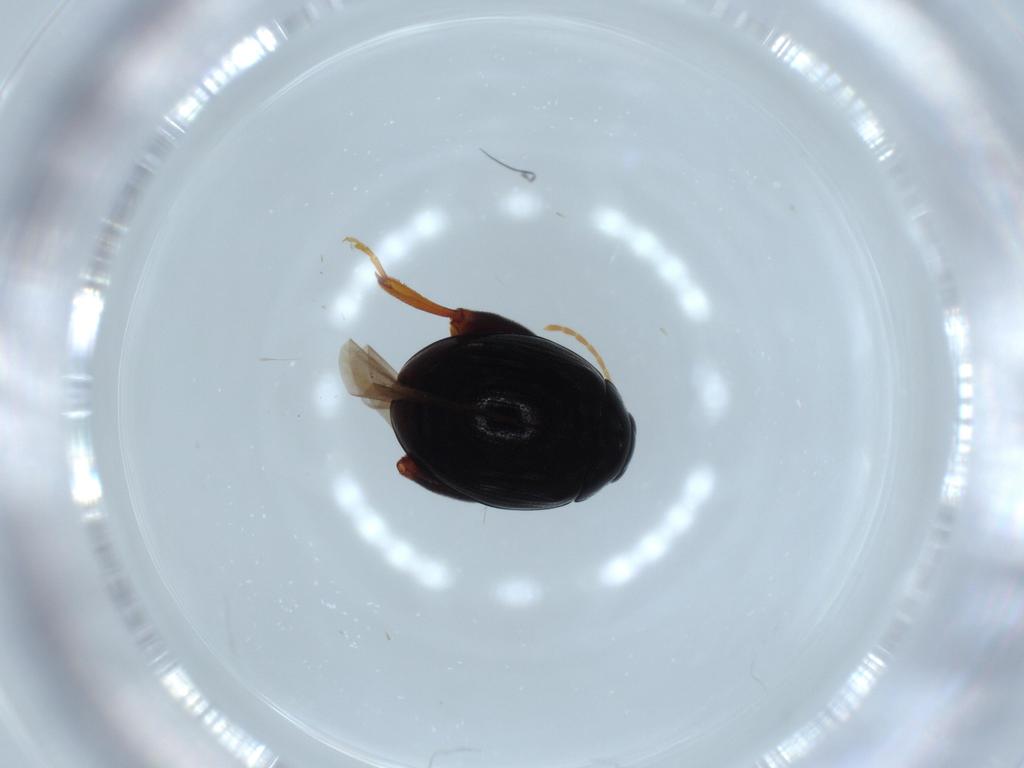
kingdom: Animalia
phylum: Arthropoda
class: Insecta
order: Coleoptera
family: Chrysomelidae
